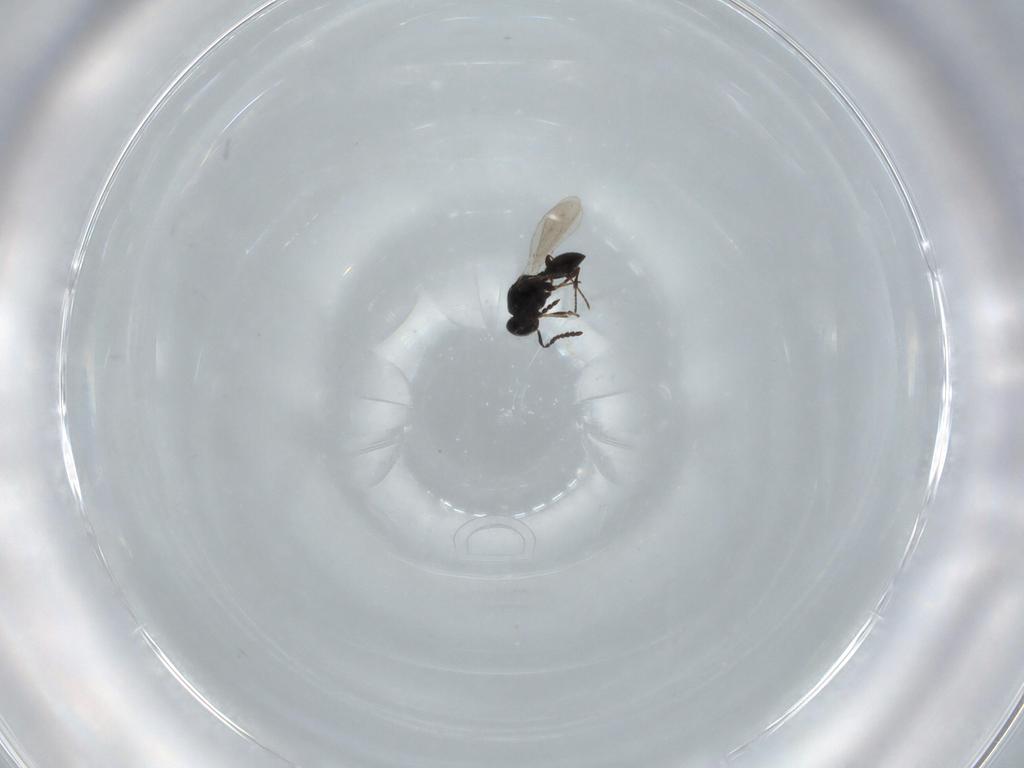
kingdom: Animalia
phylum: Arthropoda
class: Insecta
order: Hymenoptera
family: Platygastridae
